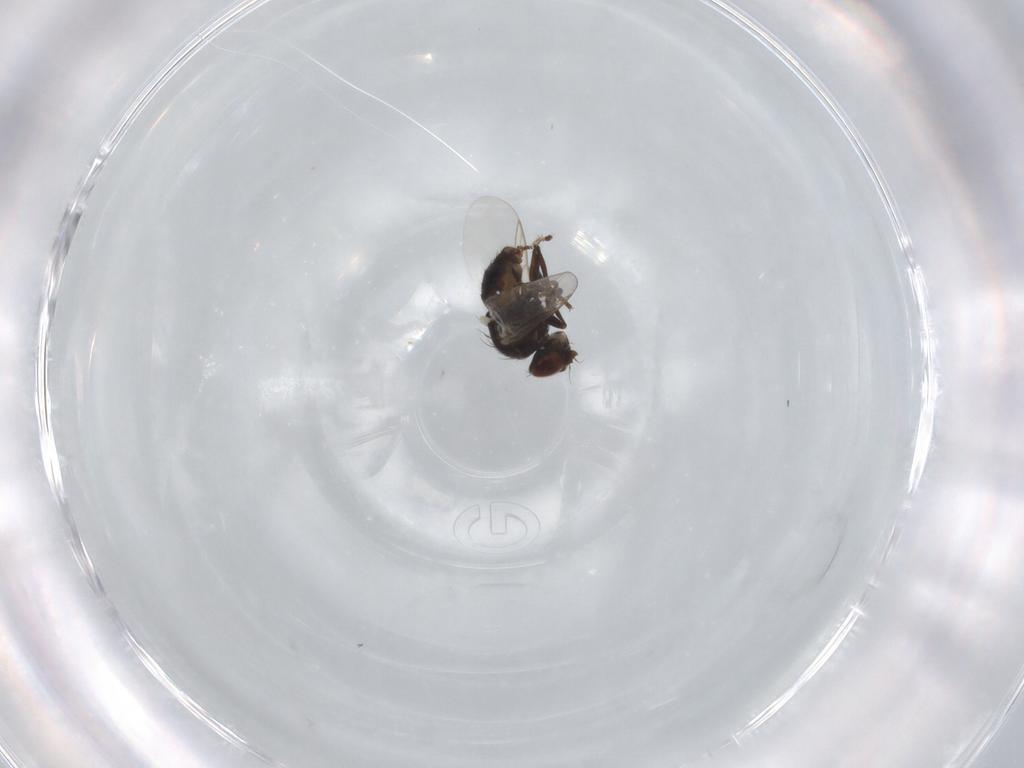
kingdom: Animalia
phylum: Arthropoda
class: Insecta
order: Diptera
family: Agromyzidae
